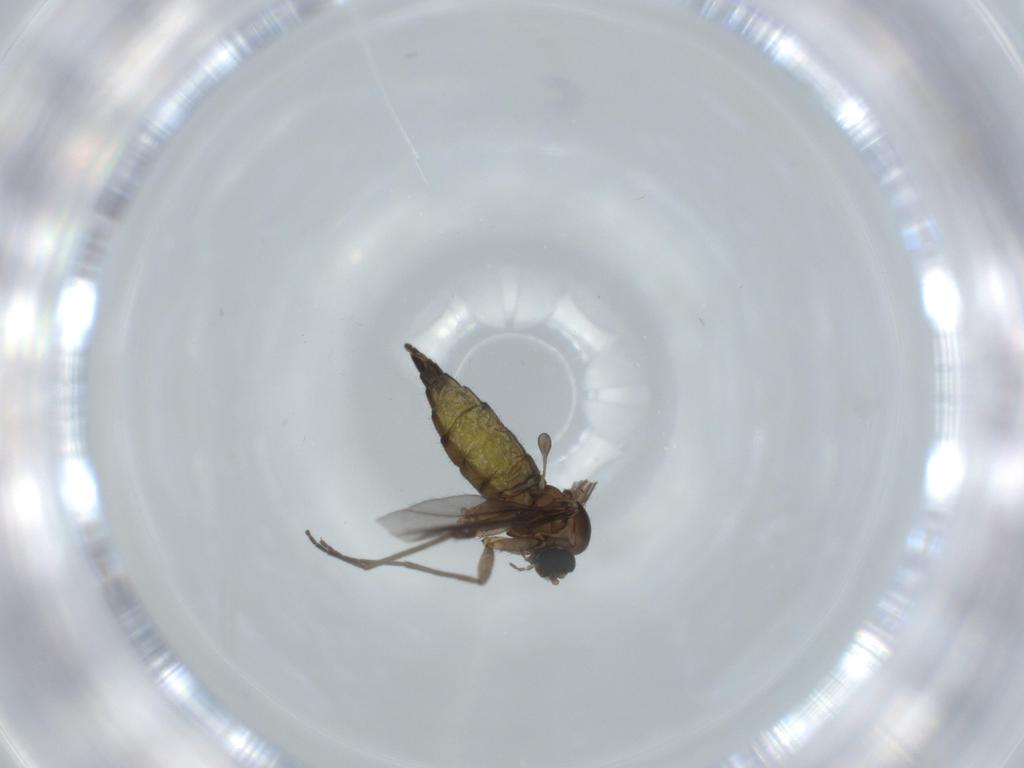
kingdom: Animalia
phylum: Arthropoda
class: Insecta
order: Diptera
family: Sciaridae
